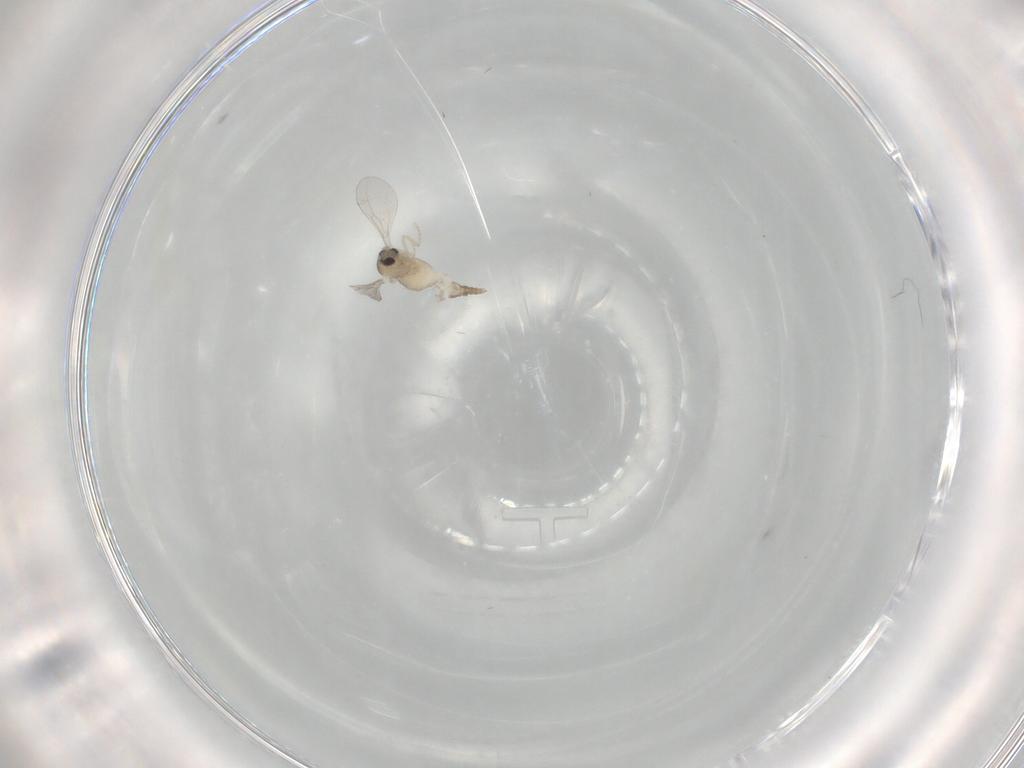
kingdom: Animalia
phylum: Arthropoda
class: Insecta
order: Diptera
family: Cecidomyiidae
